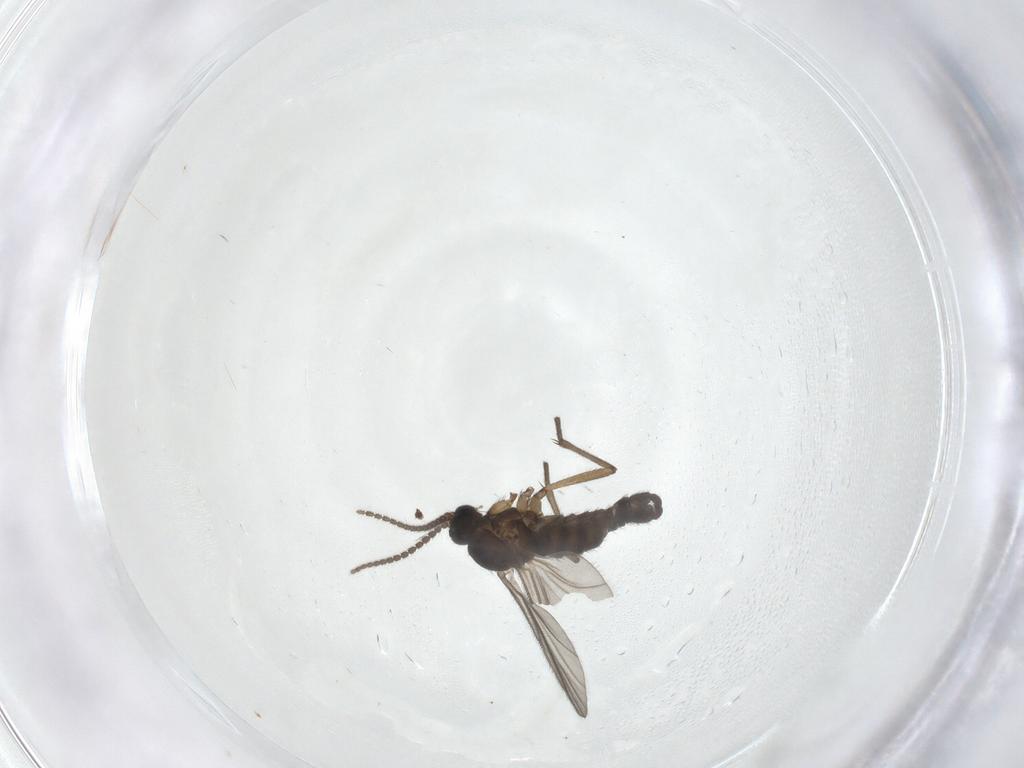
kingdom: Animalia
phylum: Arthropoda
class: Insecta
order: Diptera
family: Sciaridae
